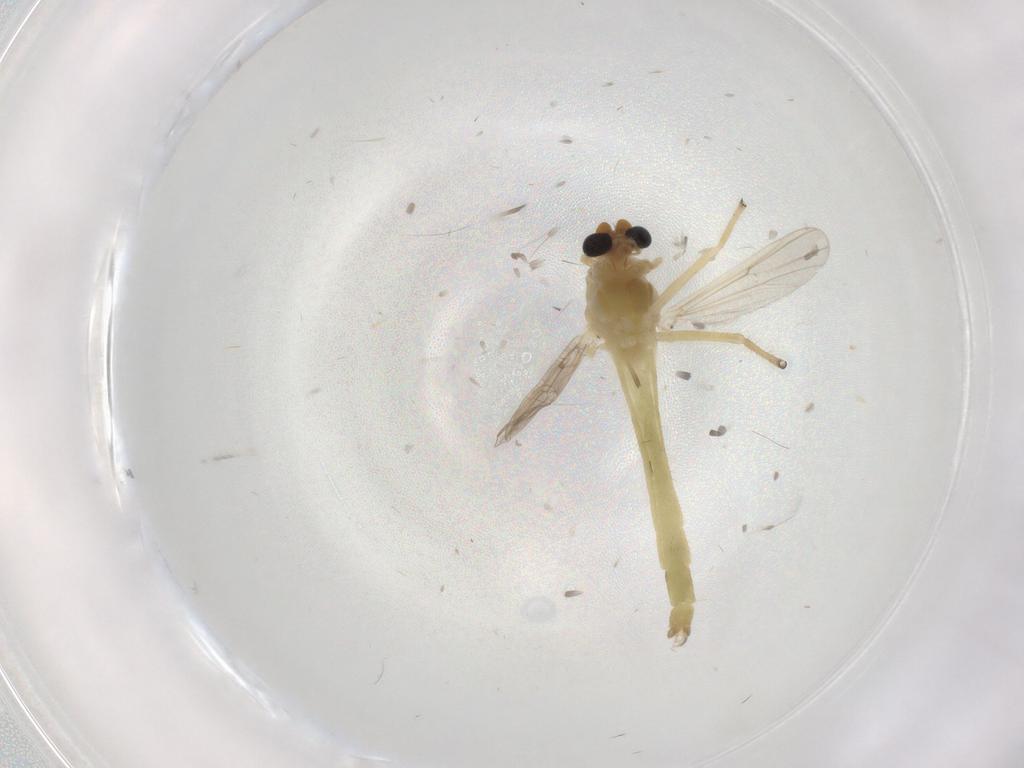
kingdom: Animalia
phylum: Arthropoda
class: Insecta
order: Diptera
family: Chironomidae
